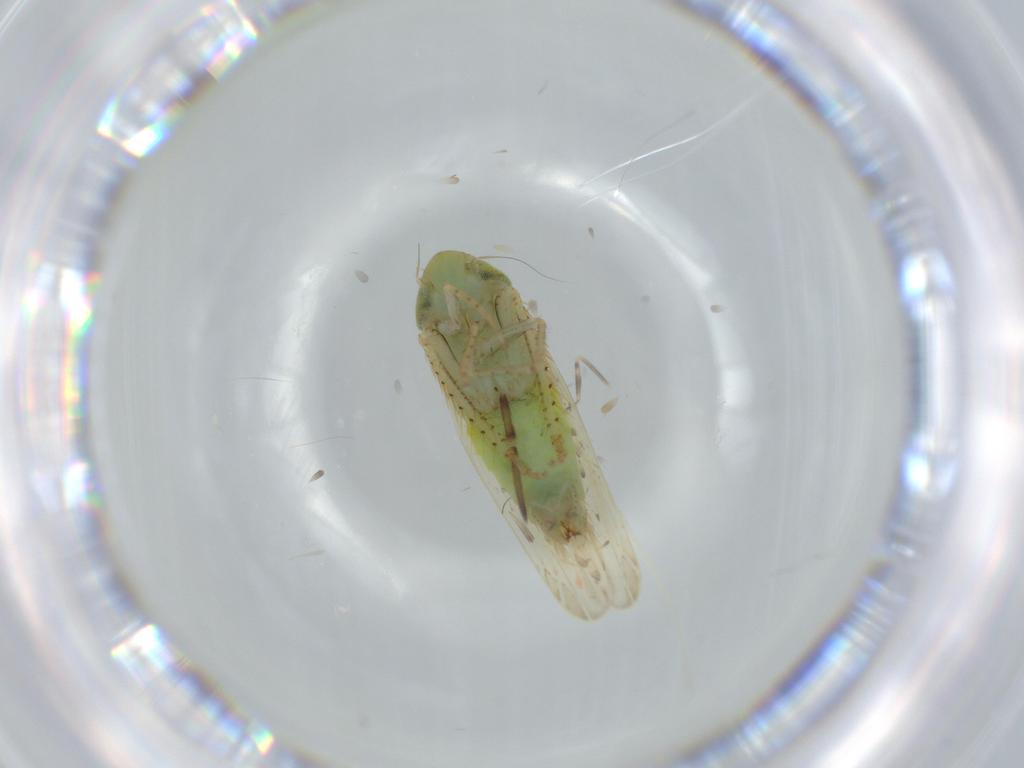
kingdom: Animalia
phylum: Arthropoda
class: Insecta
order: Hemiptera
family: Cicadellidae
